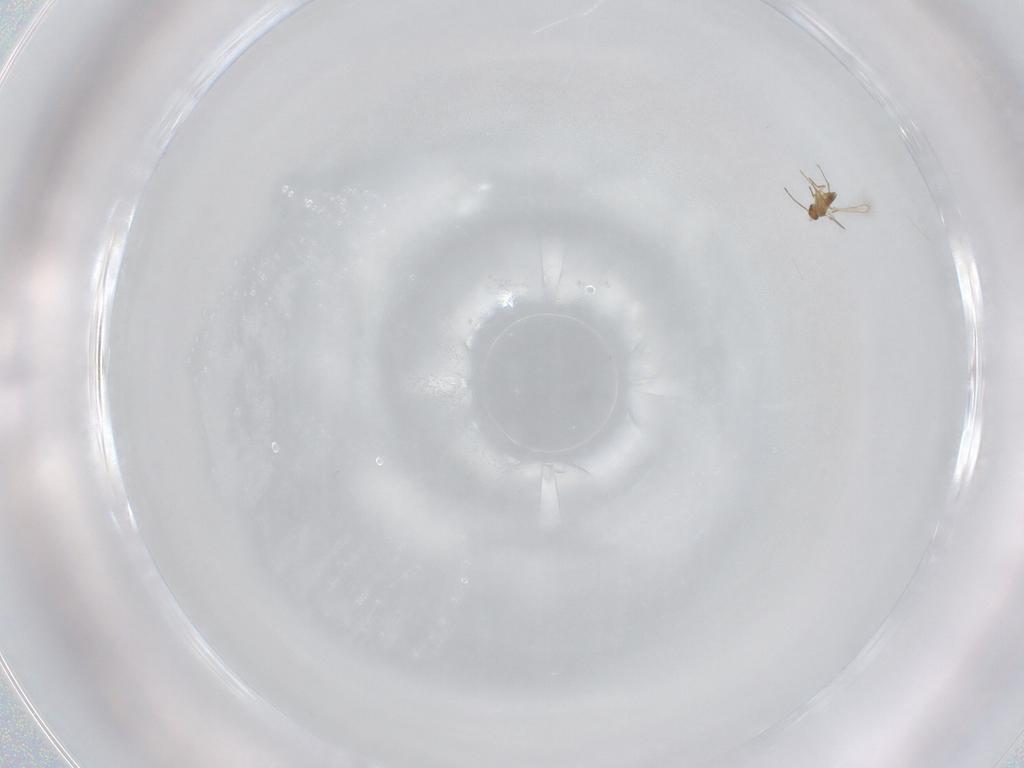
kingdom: Animalia
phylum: Arthropoda
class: Insecta
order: Hymenoptera
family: Mymaridae
